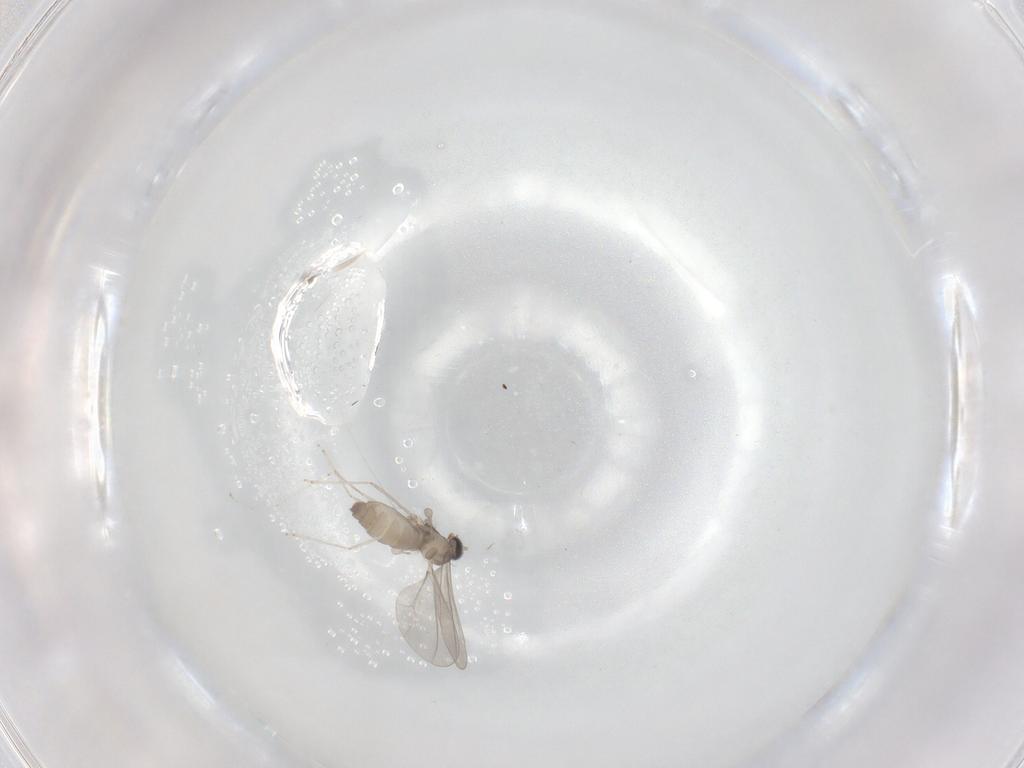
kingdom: Animalia
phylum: Arthropoda
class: Insecta
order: Diptera
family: Cecidomyiidae
